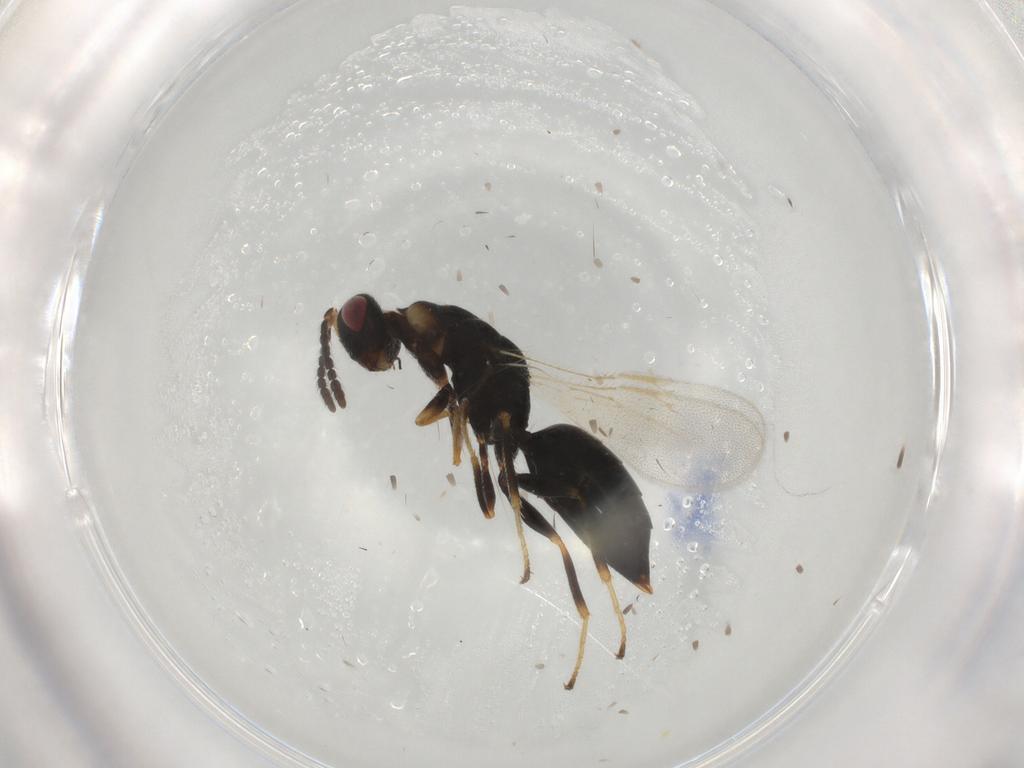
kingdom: Animalia
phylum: Arthropoda
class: Insecta
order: Hymenoptera
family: Eurytomidae
